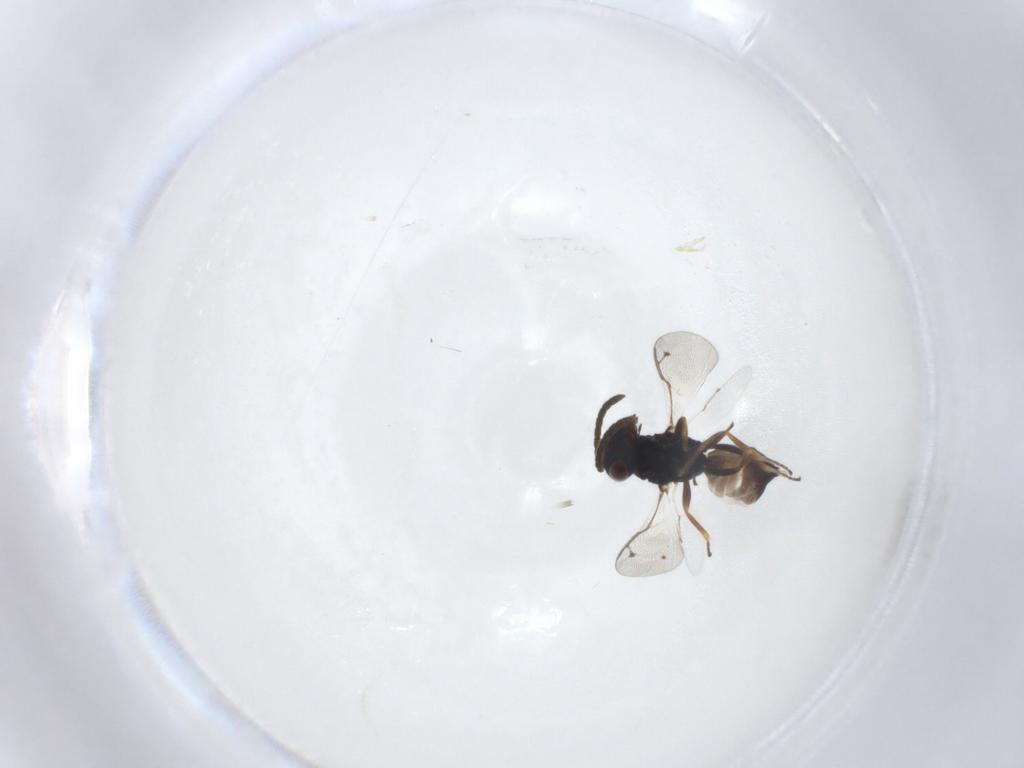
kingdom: Animalia
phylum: Arthropoda
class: Insecta
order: Hymenoptera
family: Pteromalidae
